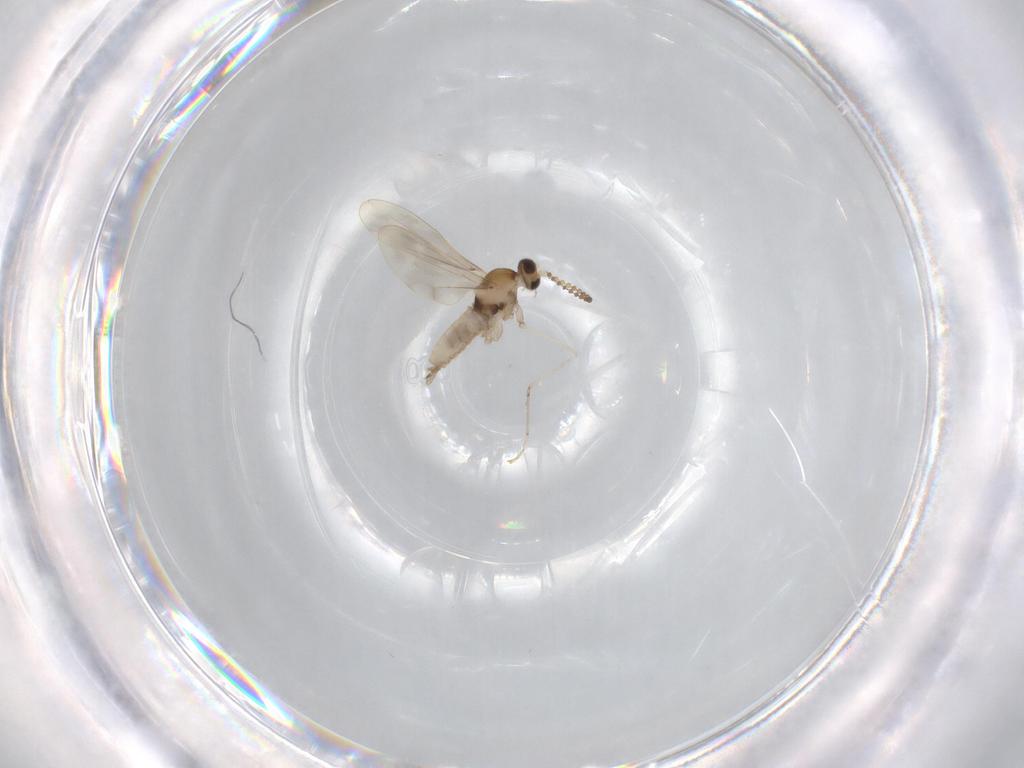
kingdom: Animalia
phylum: Arthropoda
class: Insecta
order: Diptera
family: Cecidomyiidae
